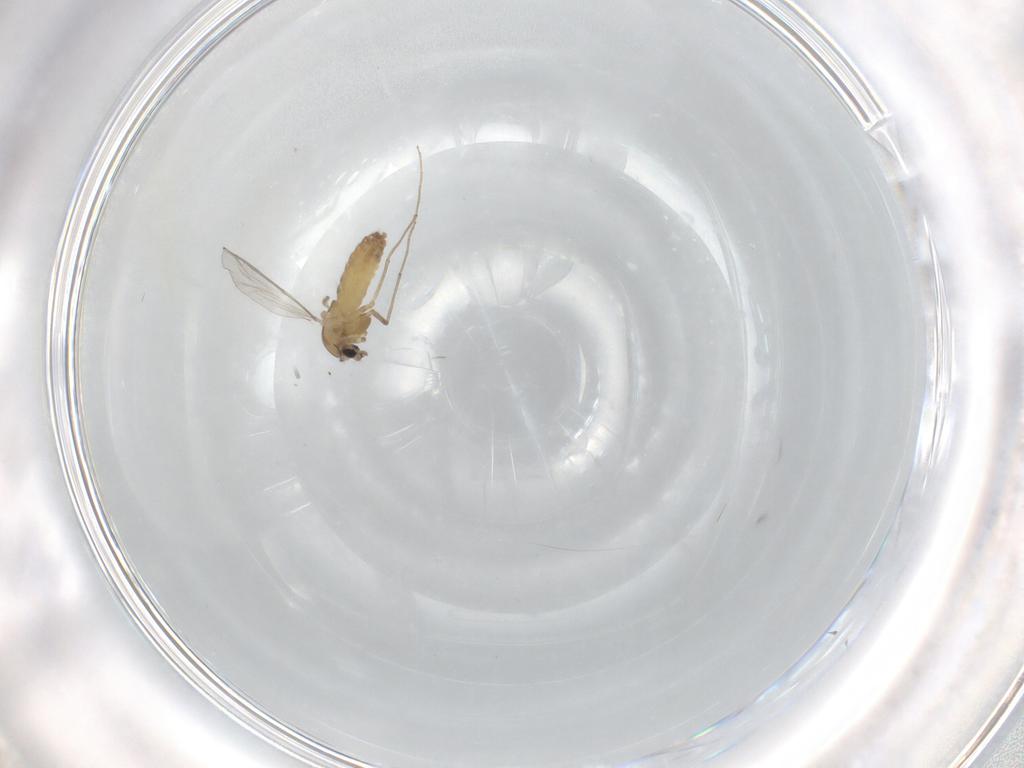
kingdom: Animalia
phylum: Arthropoda
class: Insecta
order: Diptera
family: Chironomidae
